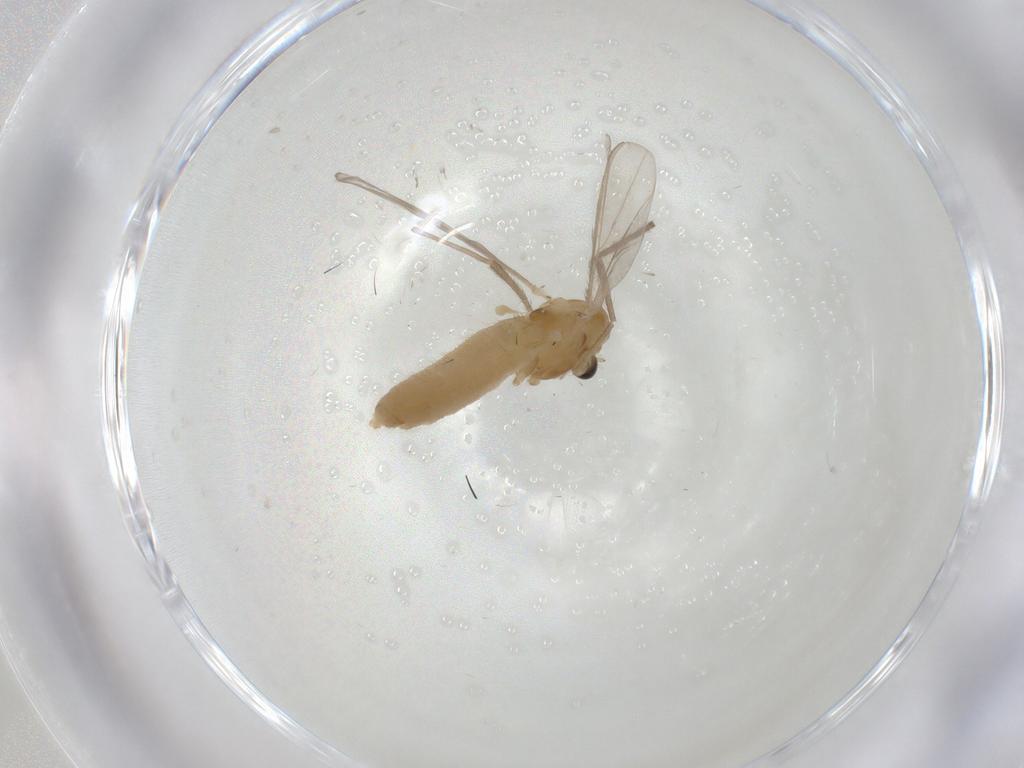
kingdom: Animalia
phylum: Arthropoda
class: Insecta
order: Diptera
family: Chironomidae
